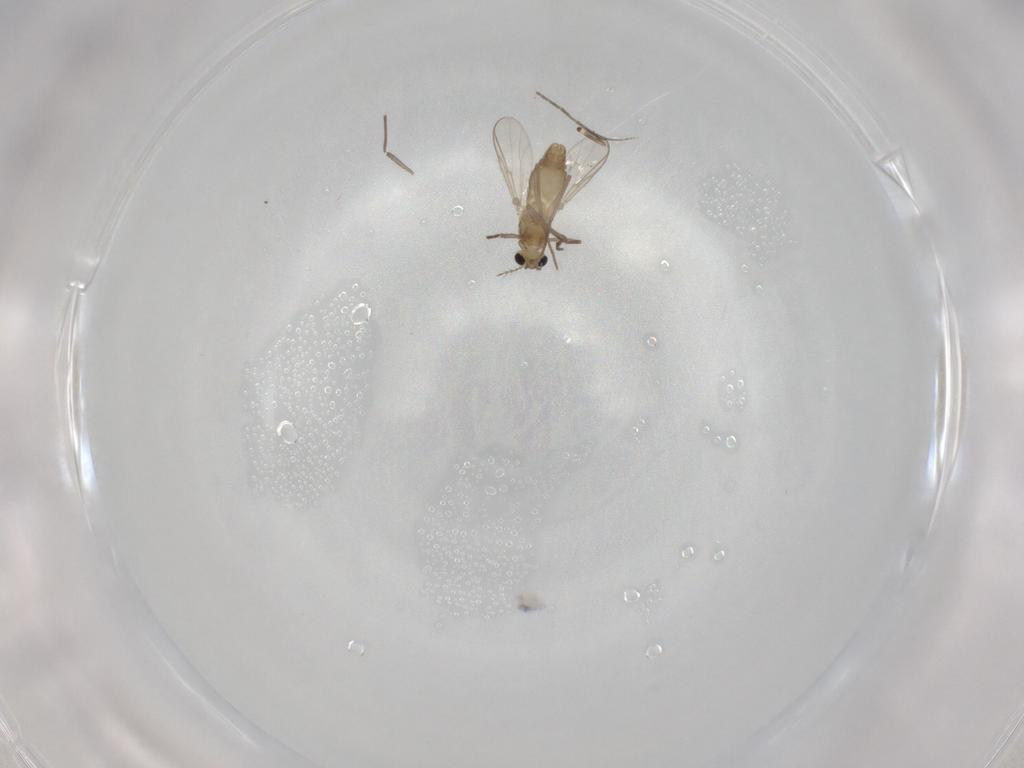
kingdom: Animalia
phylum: Arthropoda
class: Insecta
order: Diptera
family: Chironomidae
